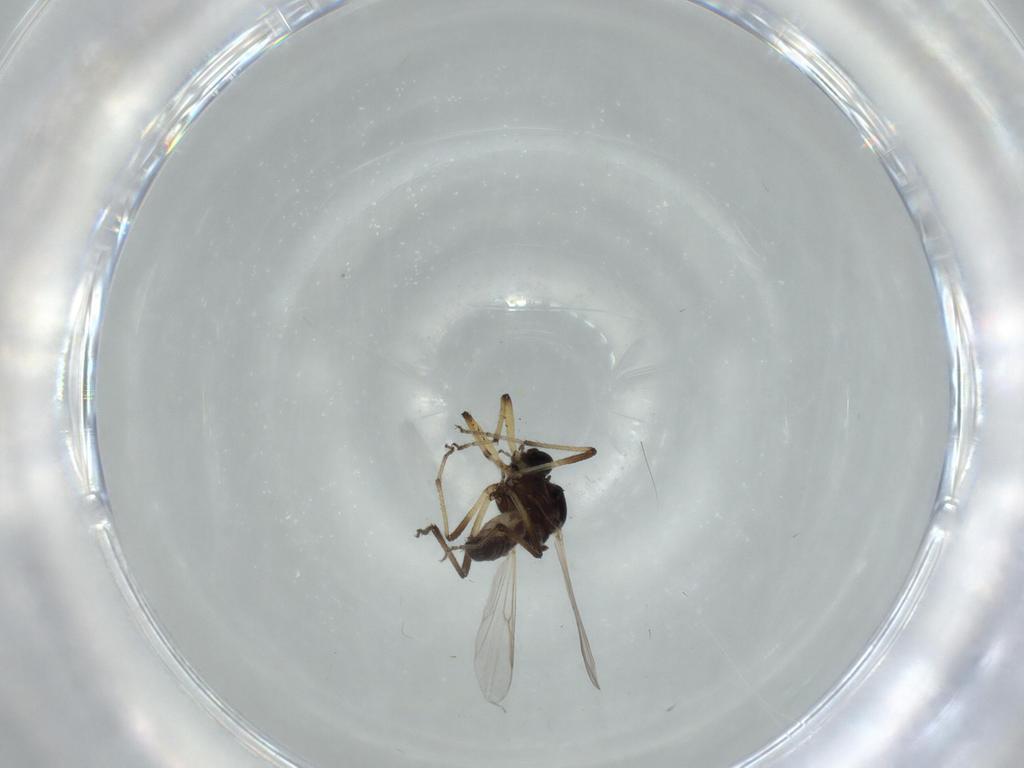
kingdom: Animalia
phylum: Arthropoda
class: Insecta
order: Diptera
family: Ceratopogonidae
